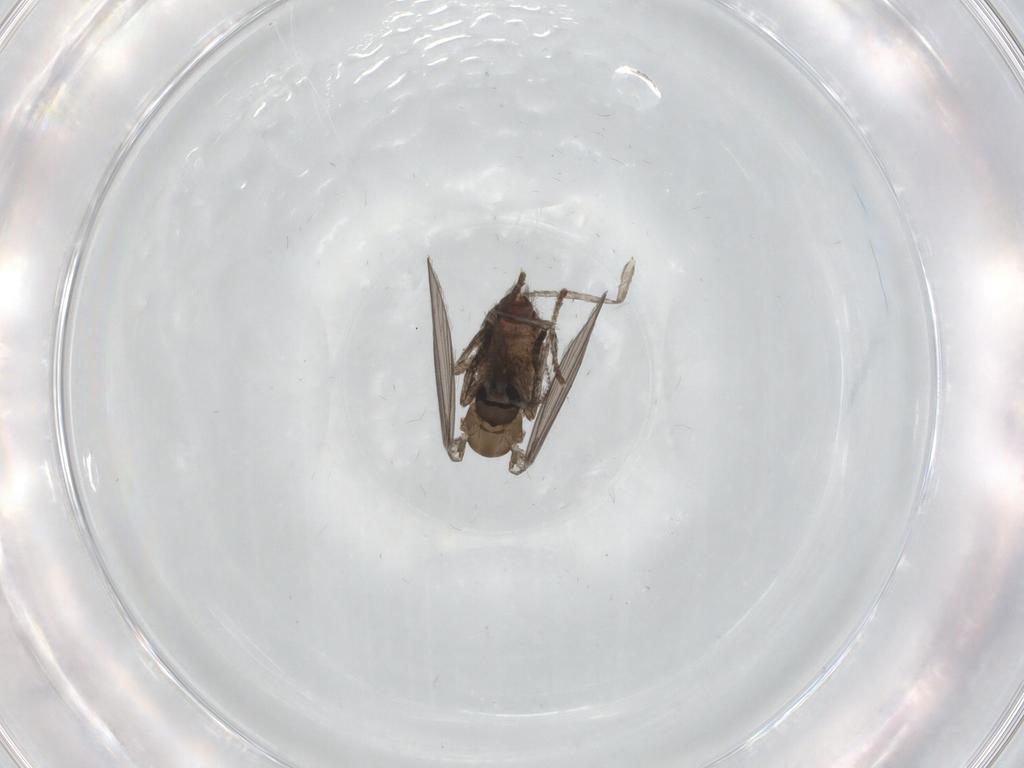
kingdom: Animalia
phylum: Arthropoda
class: Insecta
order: Diptera
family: Psychodidae
